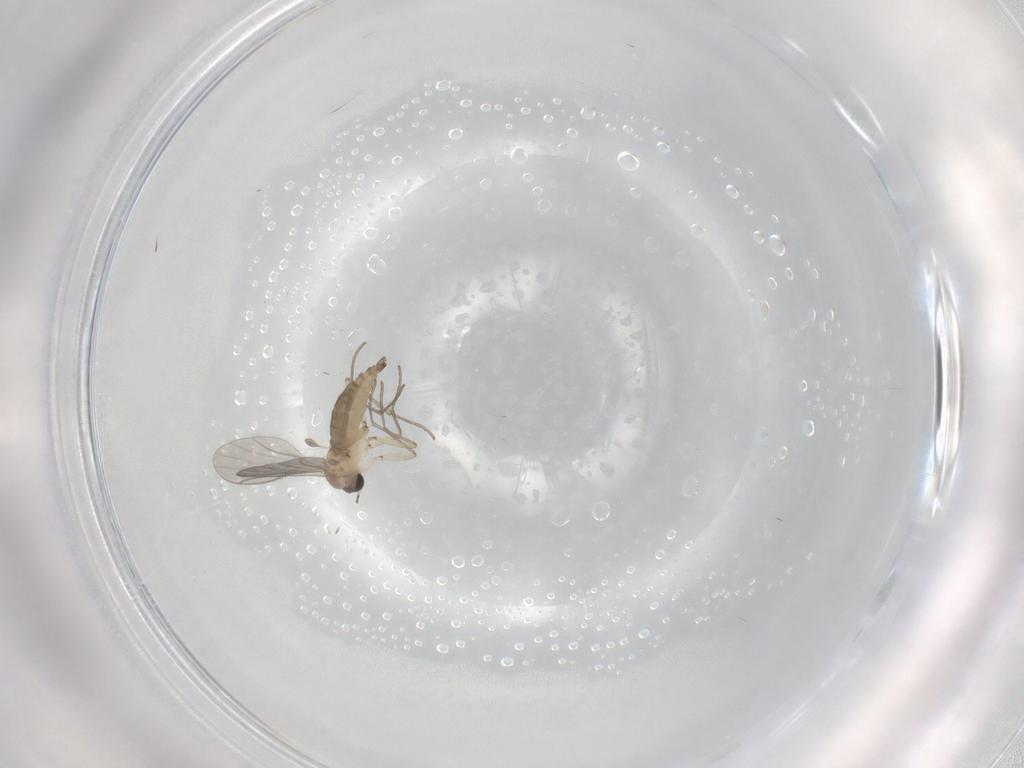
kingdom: Animalia
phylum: Arthropoda
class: Insecta
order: Diptera
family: Sciaridae
